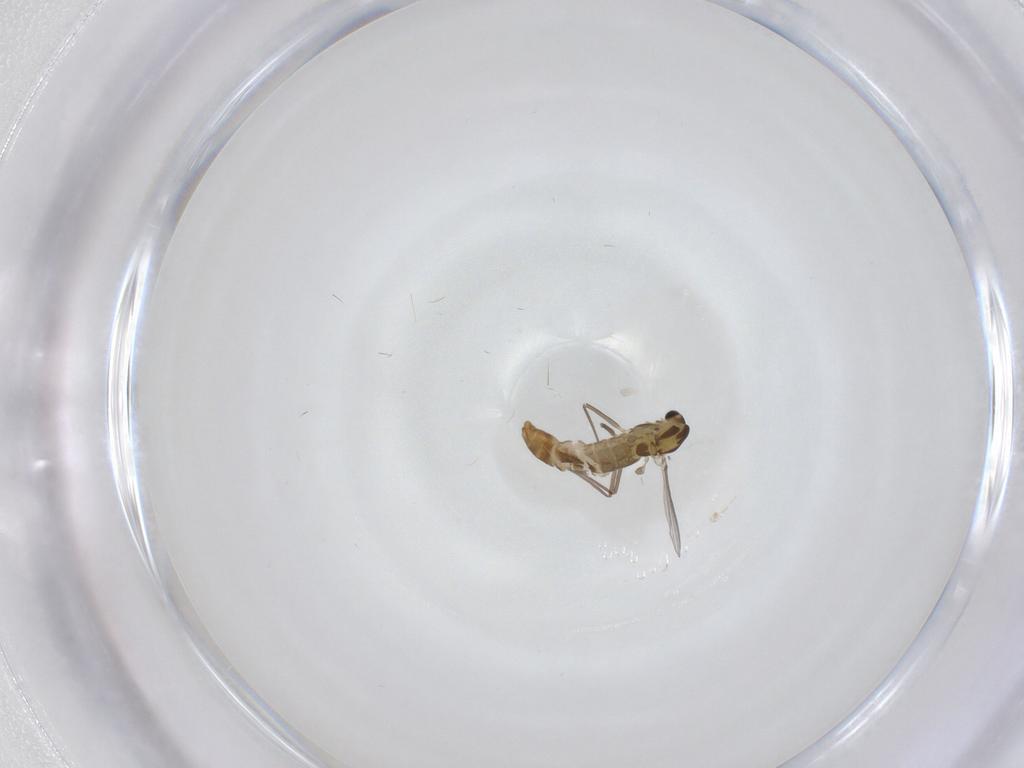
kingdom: Animalia
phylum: Arthropoda
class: Insecta
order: Diptera
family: Chironomidae
